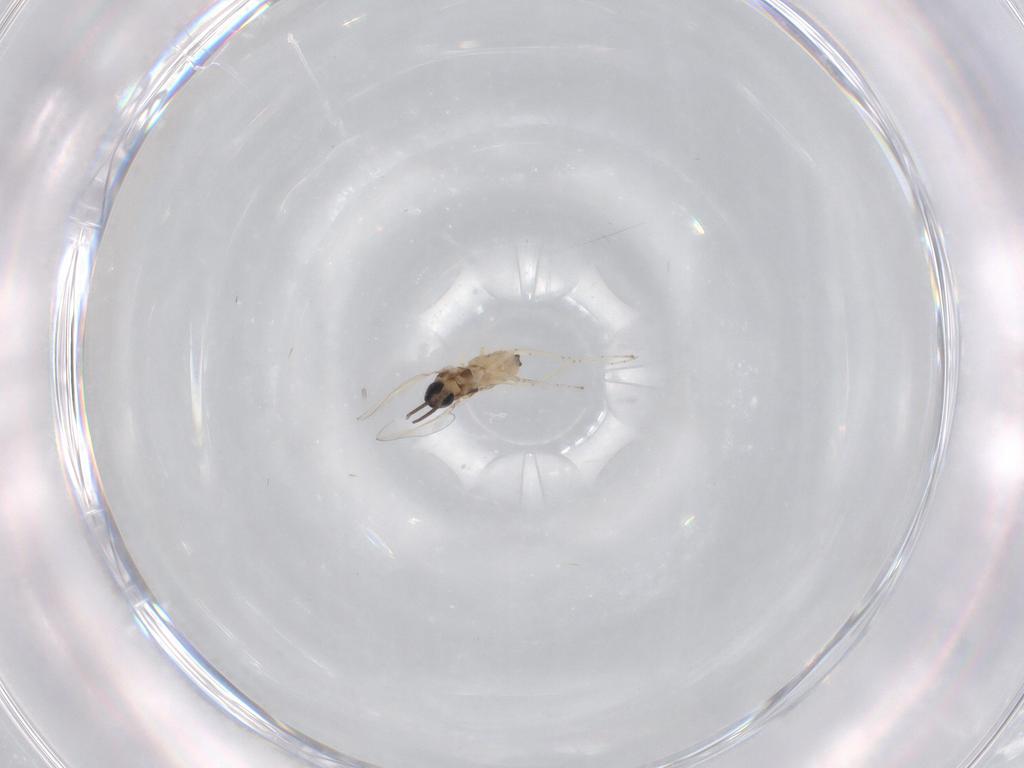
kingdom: Animalia
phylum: Arthropoda
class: Insecta
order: Diptera
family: Cecidomyiidae
